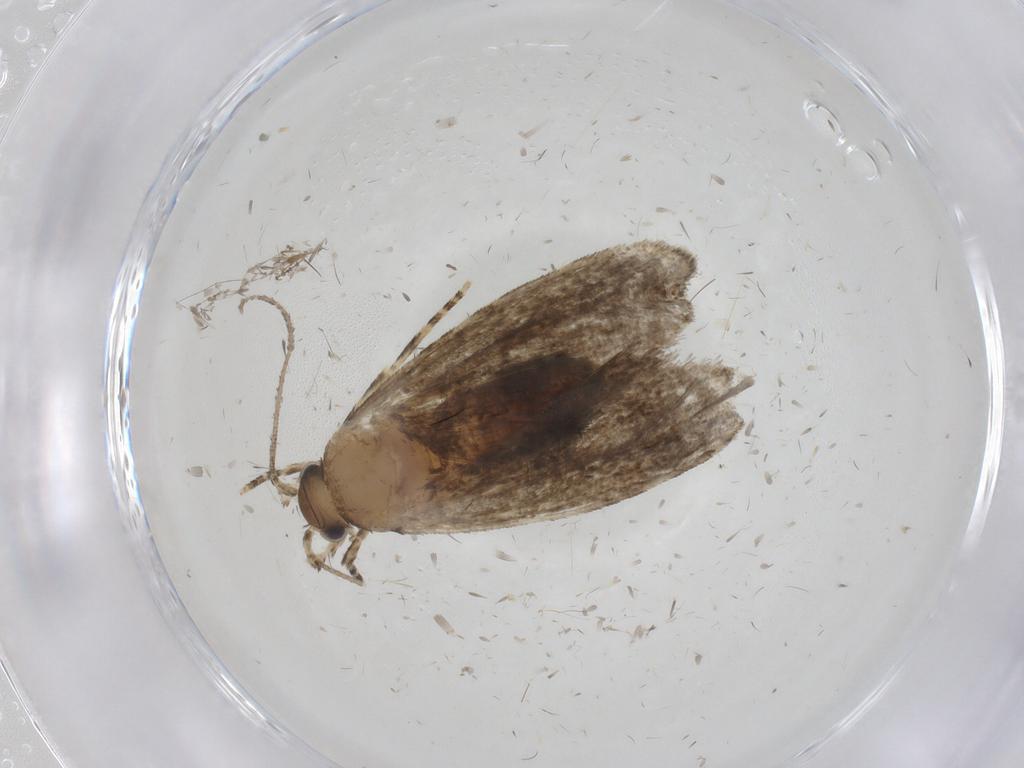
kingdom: Animalia
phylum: Arthropoda
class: Insecta
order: Lepidoptera
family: Tineidae
